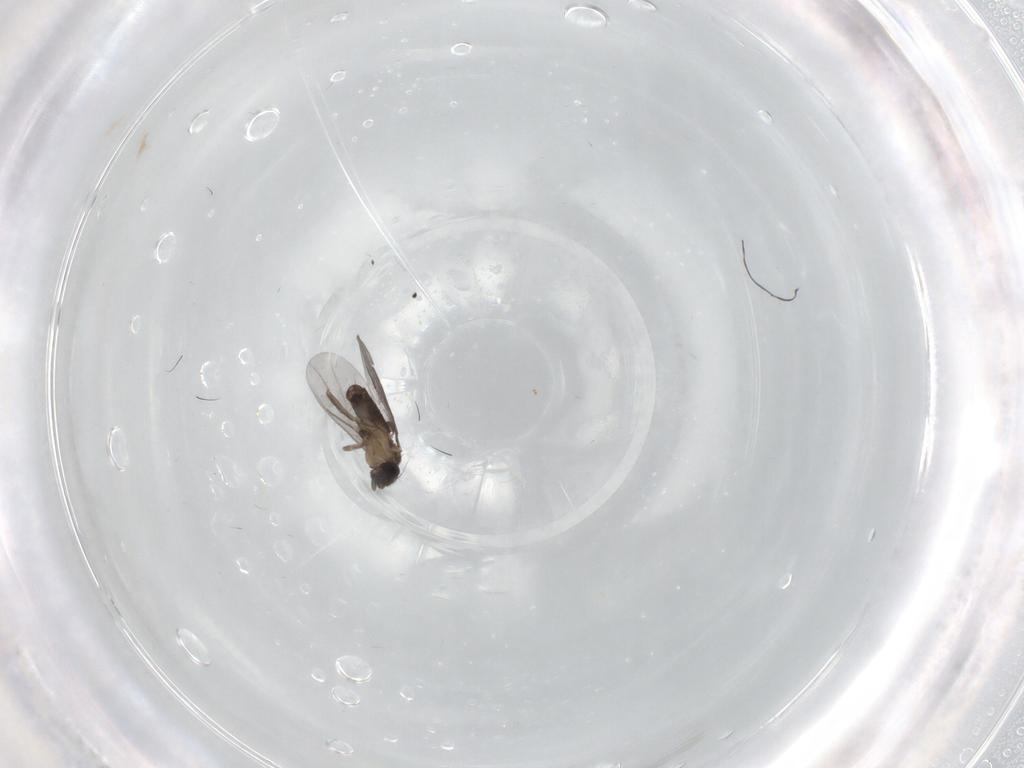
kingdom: Animalia
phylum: Arthropoda
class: Insecta
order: Diptera
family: Phoridae
